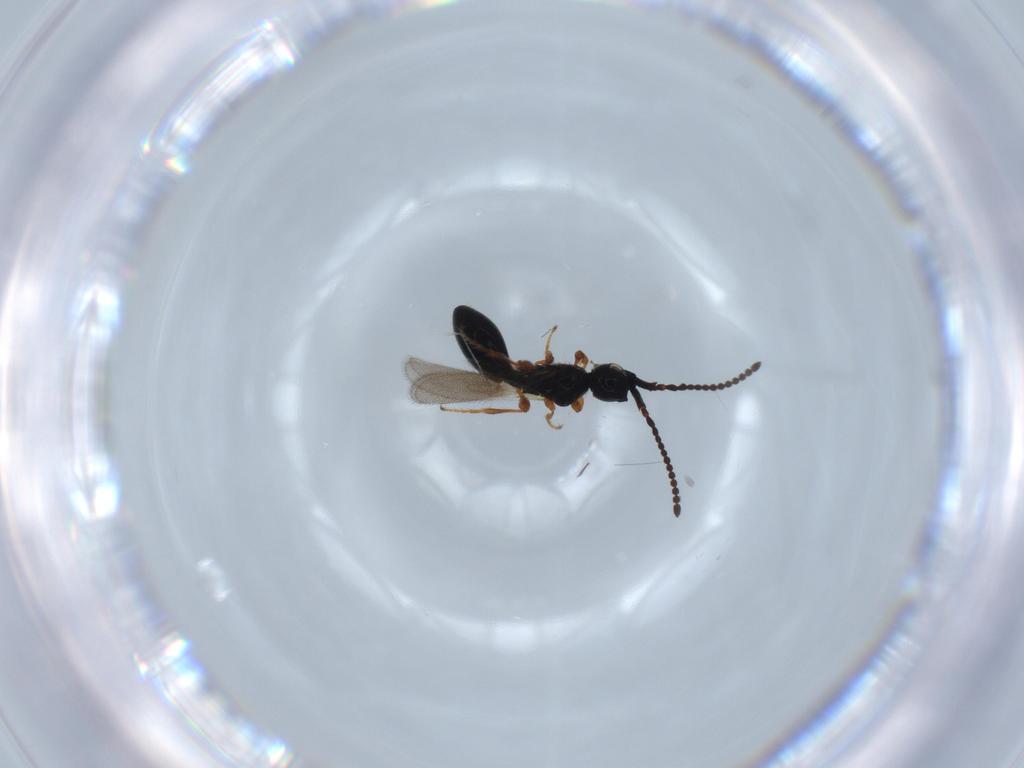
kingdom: Animalia
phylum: Arthropoda
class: Insecta
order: Hymenoptera
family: Diapriidae
